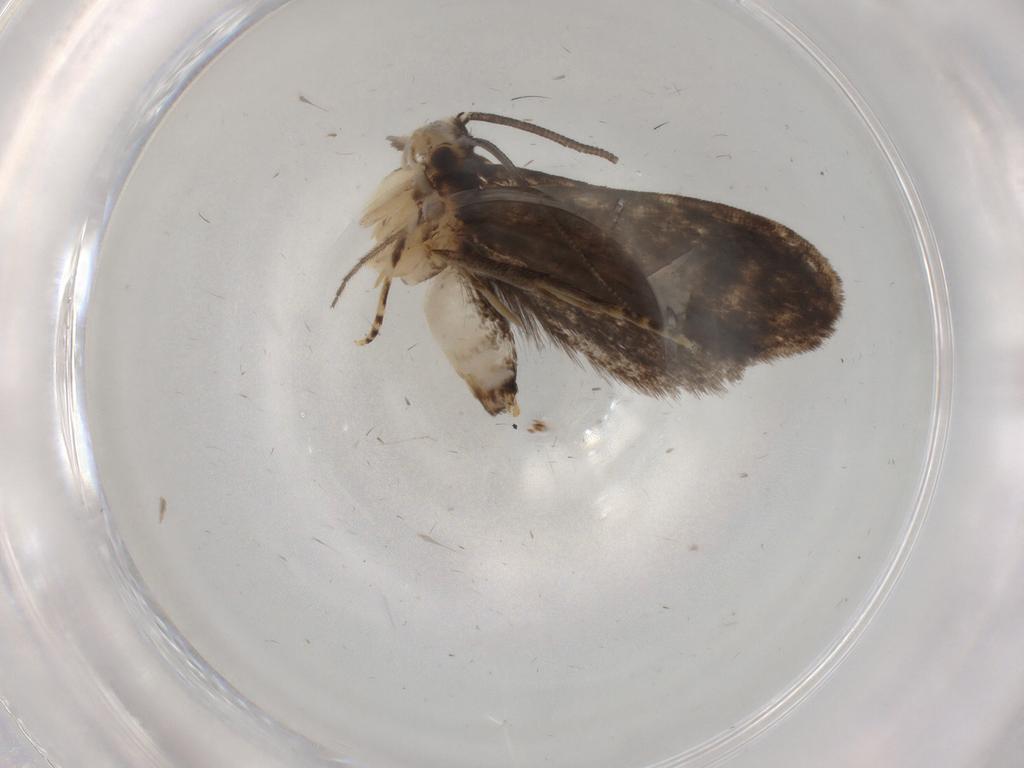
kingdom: Animalia
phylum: Arthropoda
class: Insecta
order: Lepidoptera
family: Dryadaulidae
